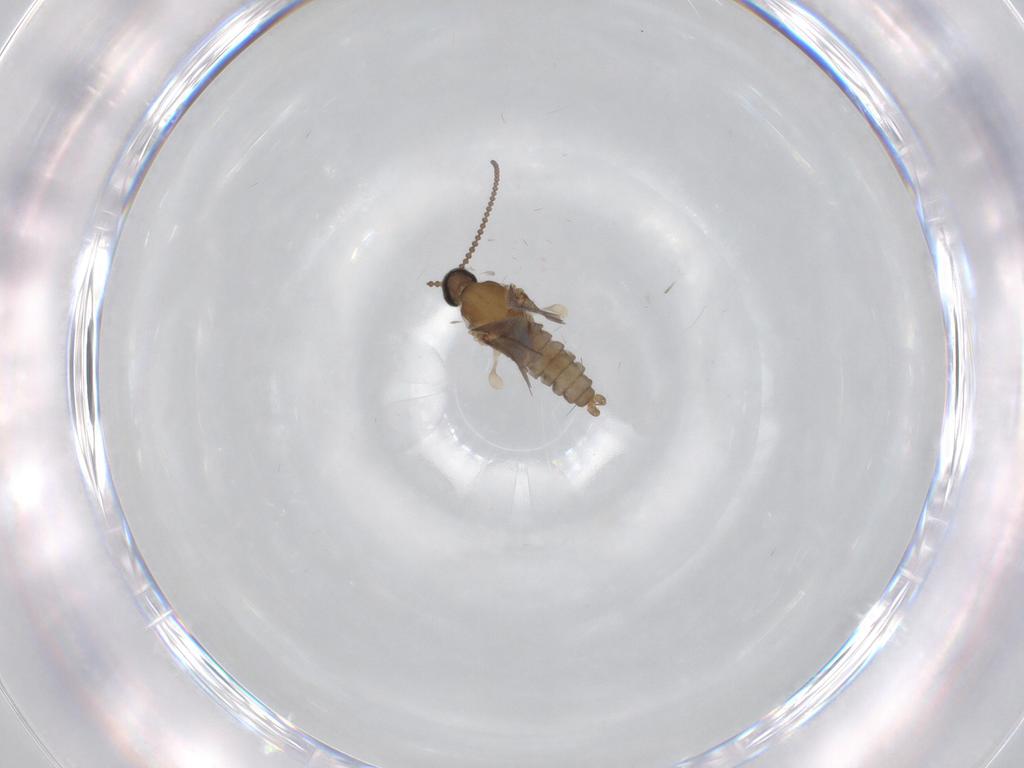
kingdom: Animalia
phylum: Arthropoda
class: Insecta
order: Diptera
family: Cecidomyiidae
